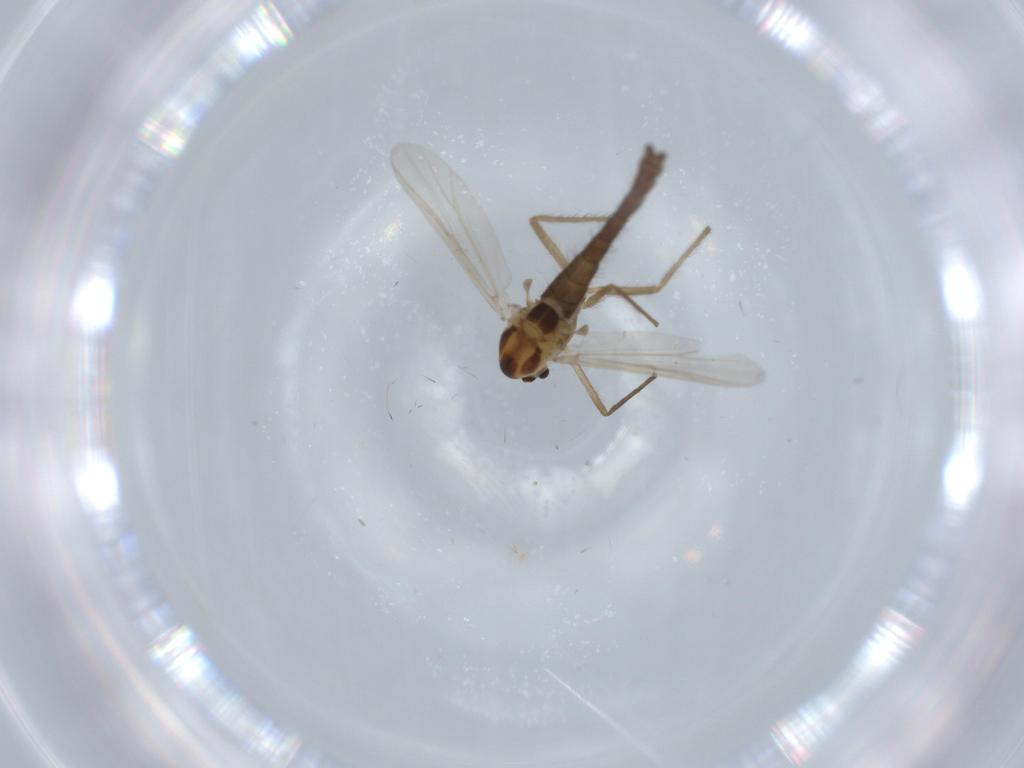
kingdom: Animalia
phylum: Arthropoda
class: Insecta
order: Diptera
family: Chironomidae
